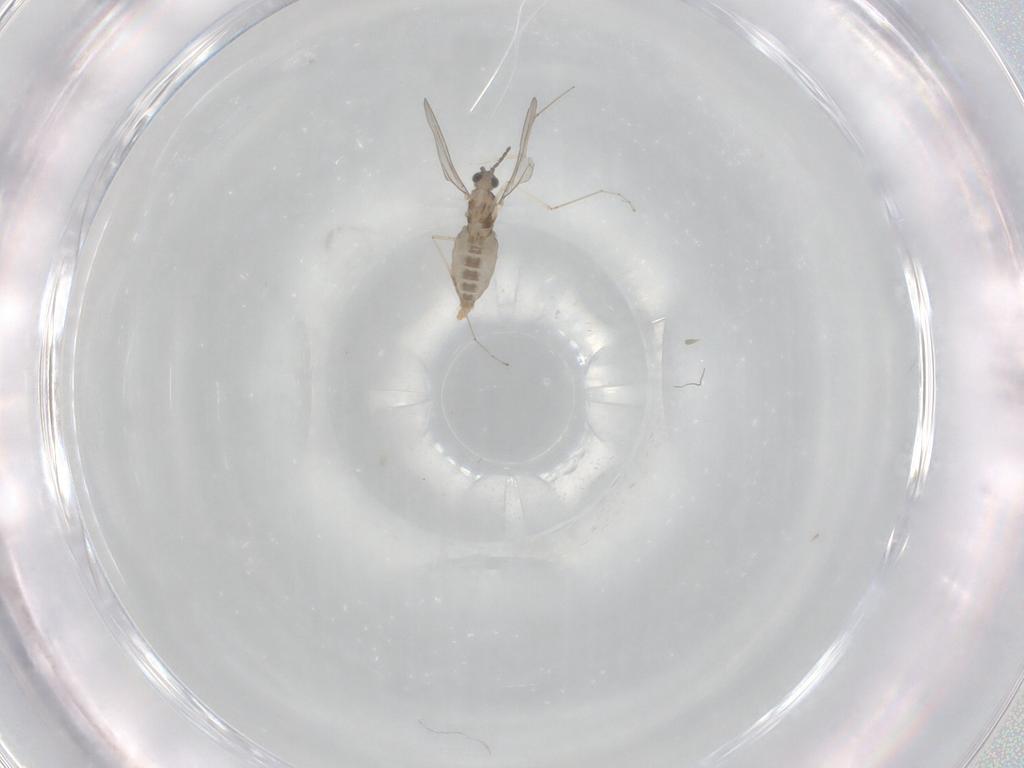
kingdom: Animalia
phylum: Arthropoda
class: Insecta
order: Diptera
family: Cecidomyiidae
